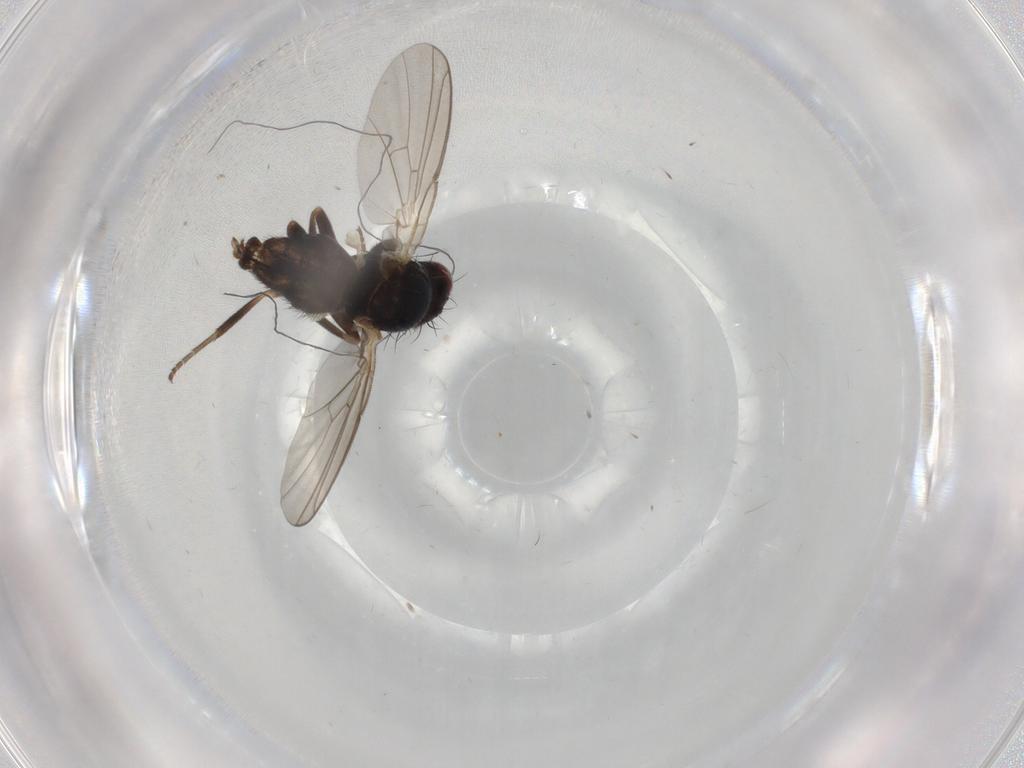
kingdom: Animalia
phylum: Arthropoda
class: Insecta
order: Diptera
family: Agromyzidae
